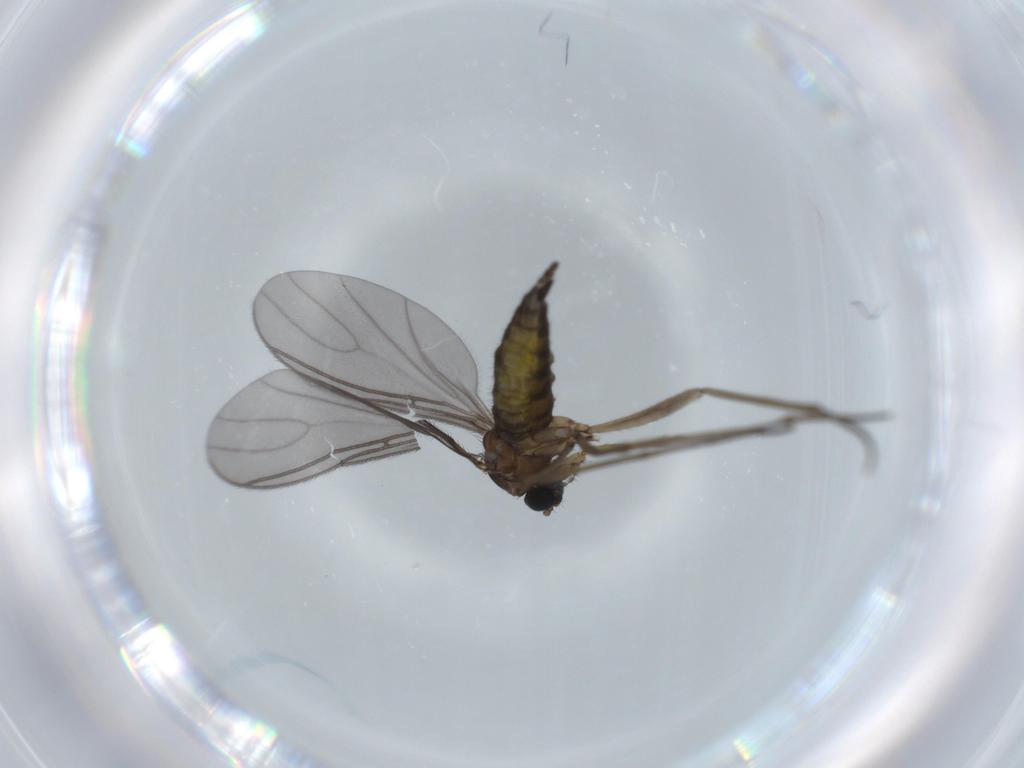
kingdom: Animalia
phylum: Arthropoda
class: Insecta
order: Diptera
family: Sciaridae
